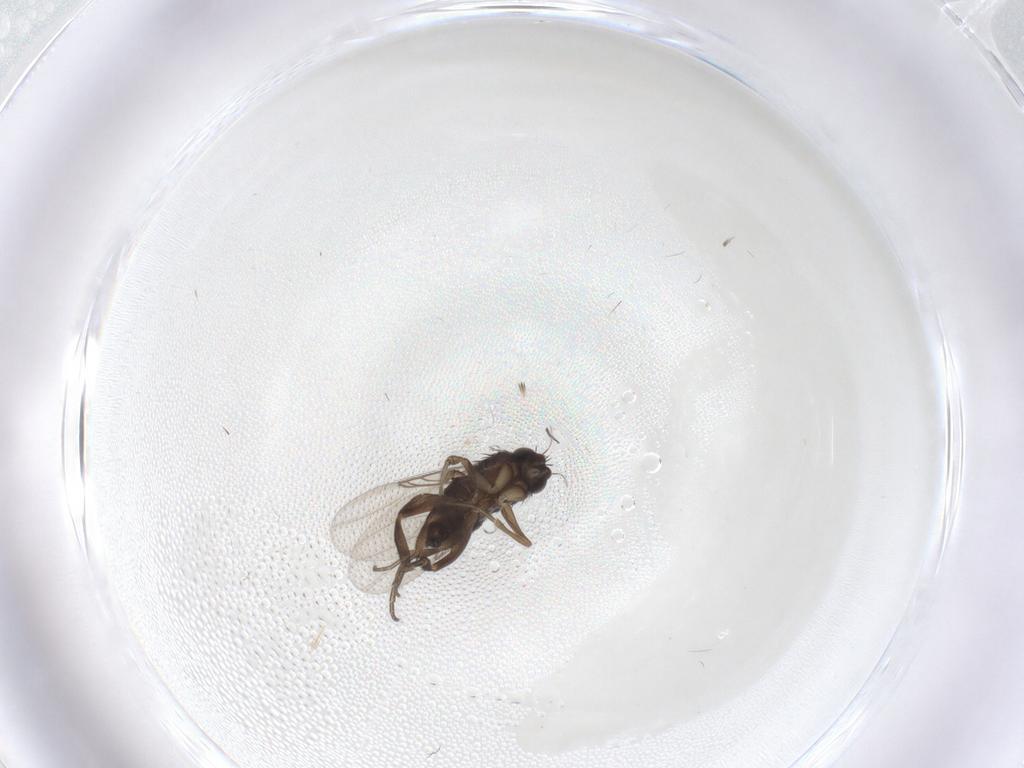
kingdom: Animalia
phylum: Arthropoda
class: Insecta
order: Diptera
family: Phoridae
